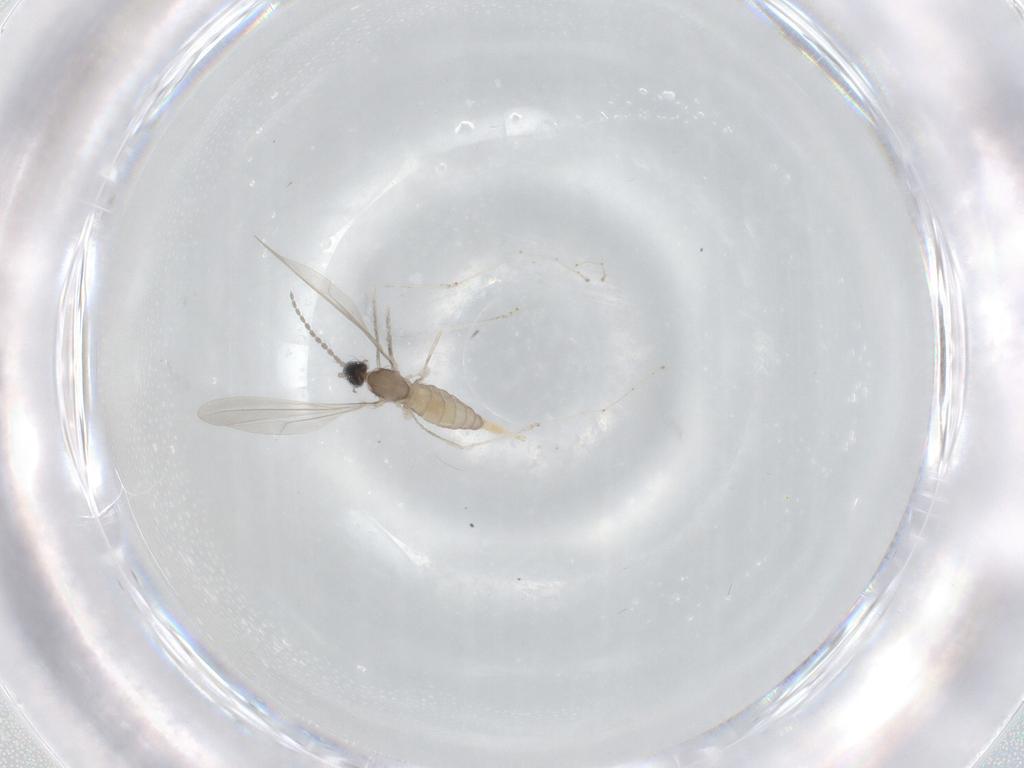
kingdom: Animalia
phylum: Arthropoda
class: Insecta
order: Diptera
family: Cecidomyiidae
